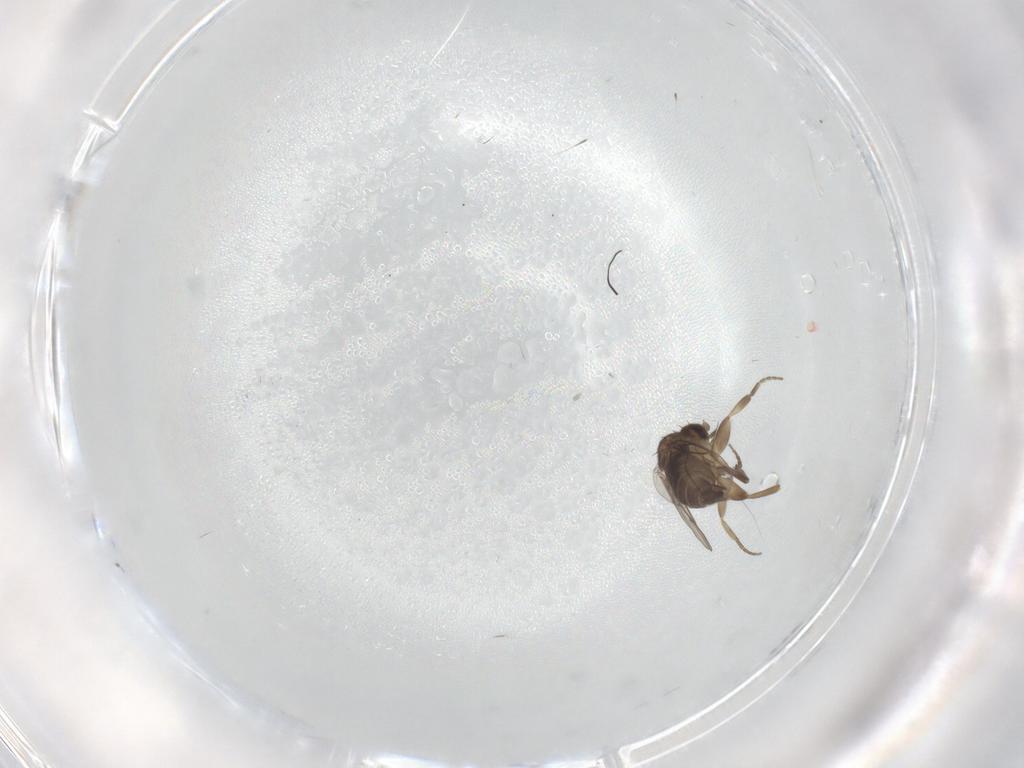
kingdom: Animalia
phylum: Arthropoda
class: Insecta
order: Diptera
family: Phoridae
